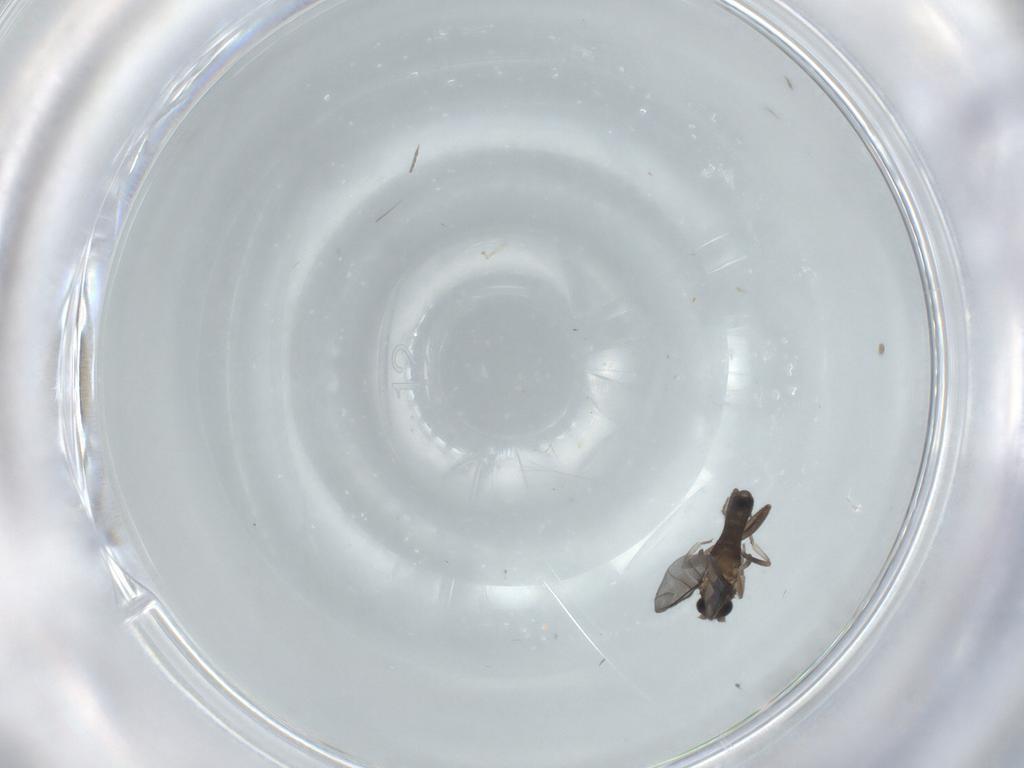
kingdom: Animalia
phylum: Arthropoda
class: Insecta
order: Diptera
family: Phoridae
